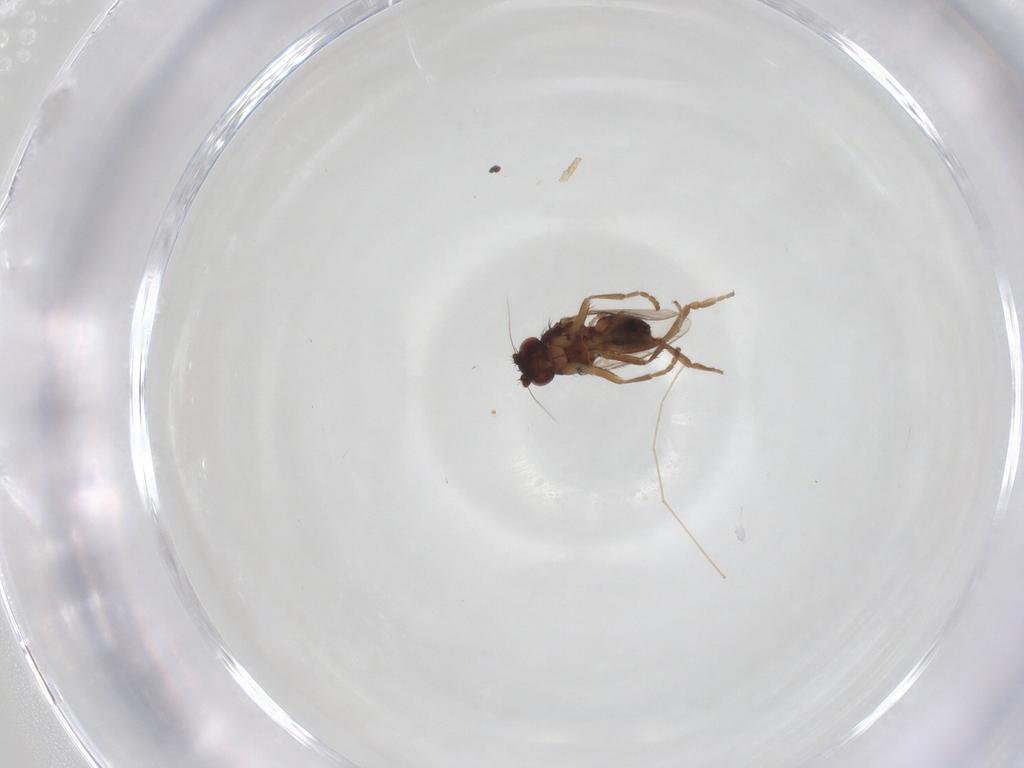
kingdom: Animalia
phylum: Arthropoda
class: Insecta
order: Diptera
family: Sphaeroceridae
